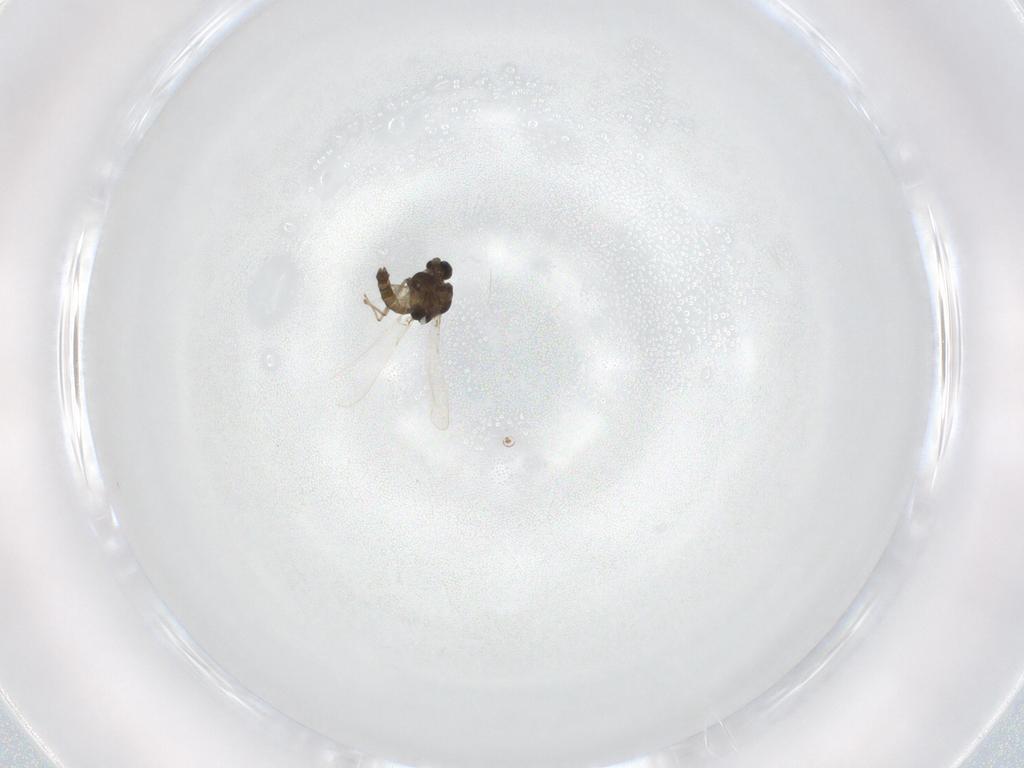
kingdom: Animalia
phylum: Arthropoda
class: Insecta
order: Diptera
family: Chironomidae
